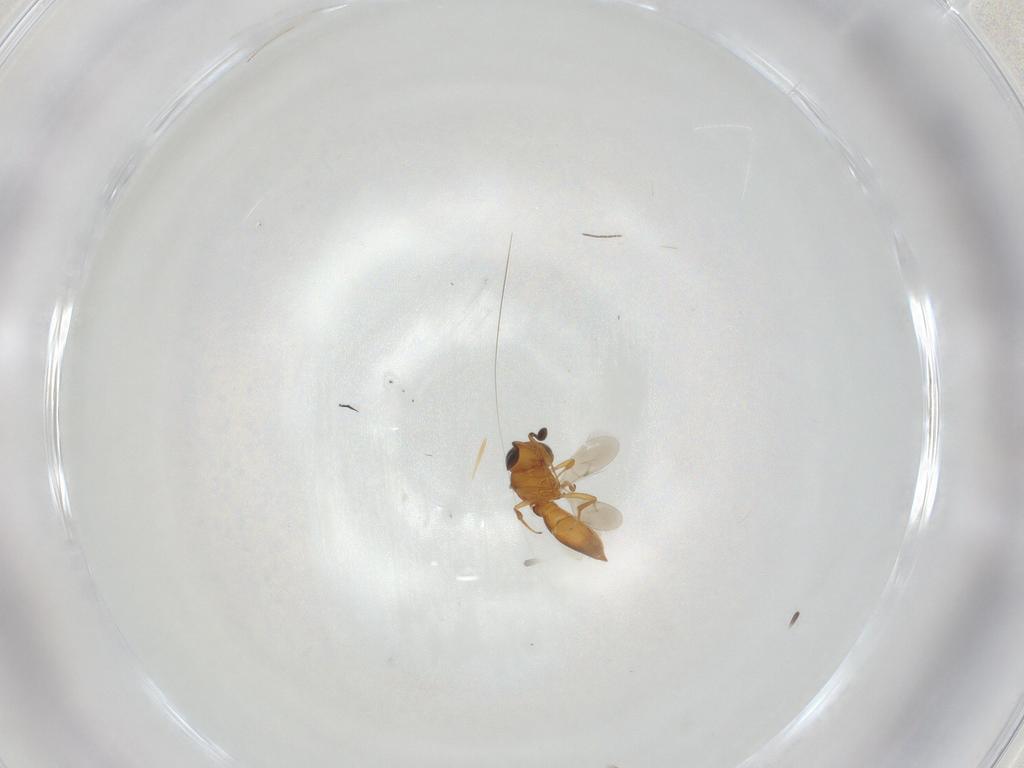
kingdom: Animalia
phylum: Arthropoda
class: Insecta
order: Hymenoptera
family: Scelionidae
